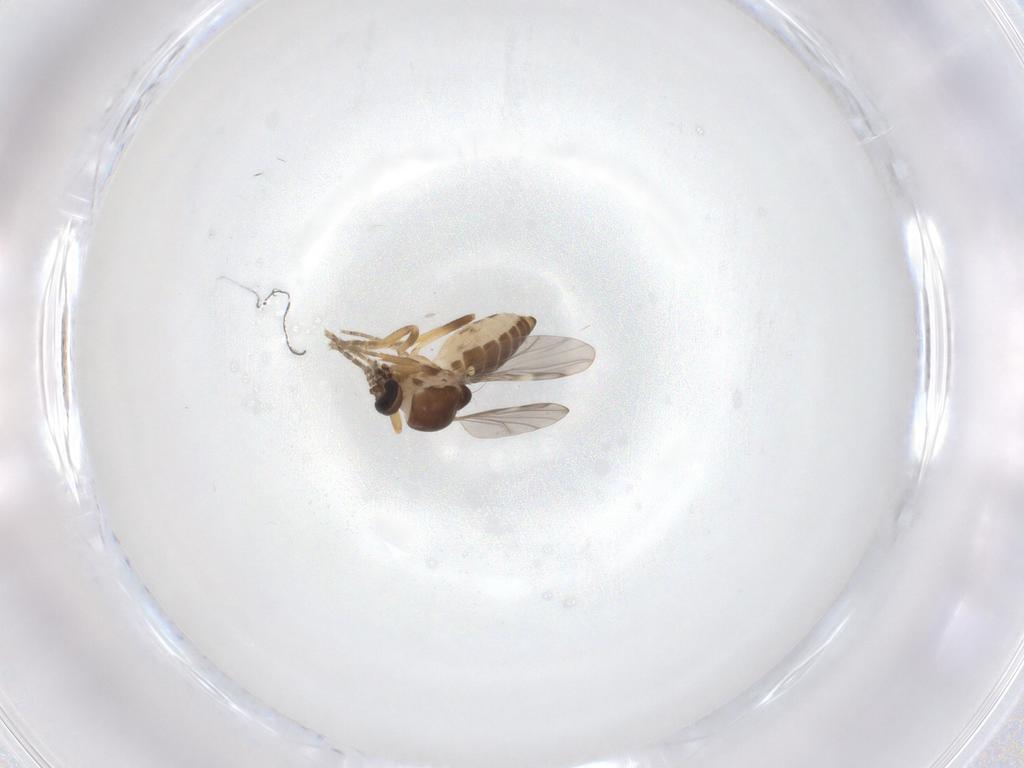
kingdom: Animalia
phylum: Arthropoda
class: Insecta
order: Diptera
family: Ceratopogonidae
